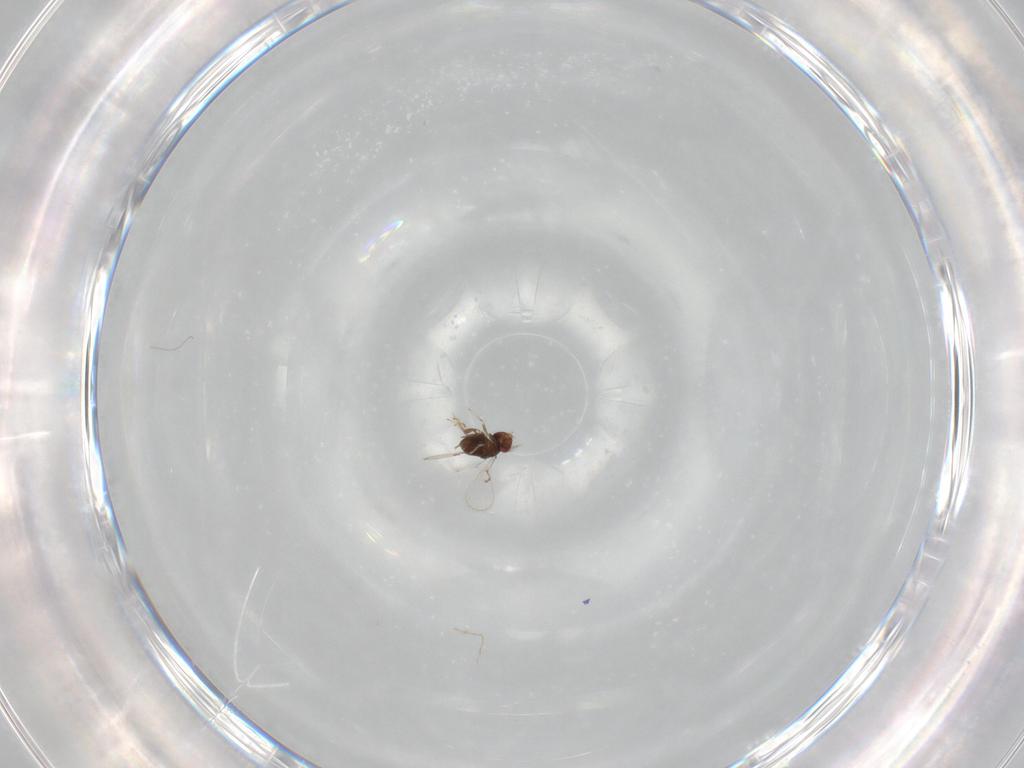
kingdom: Animalia
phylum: Arthropoda
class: Insecta
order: Hymenoptera
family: Trichogrammatidae
